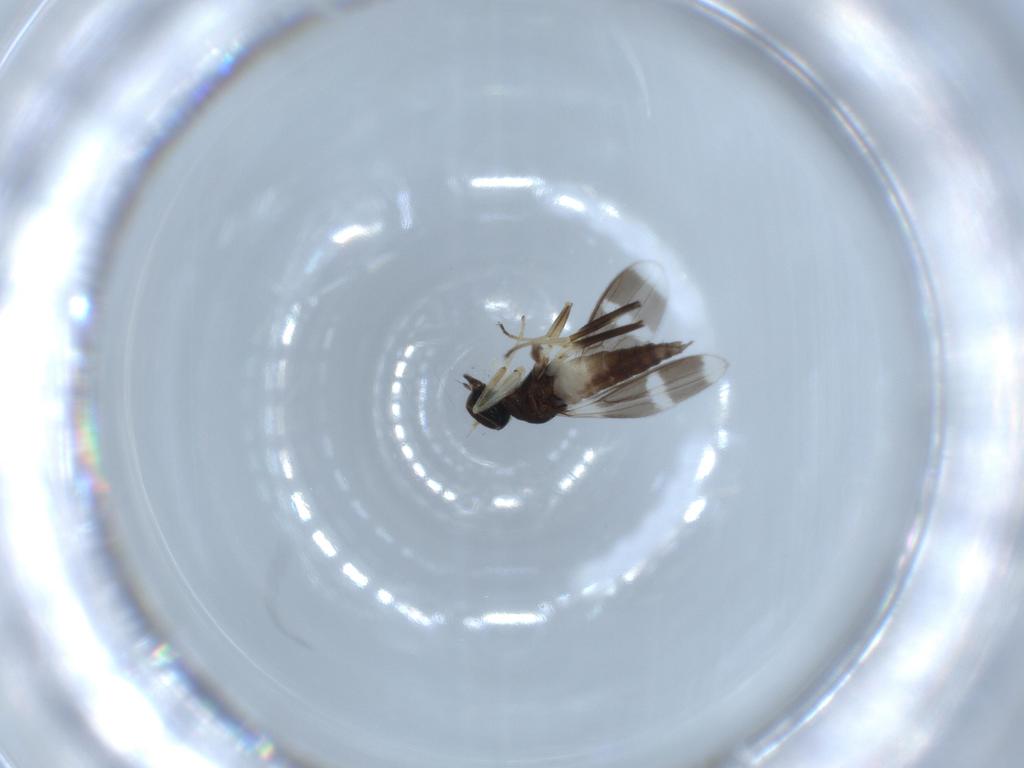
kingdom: Animalia
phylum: Arthropoda
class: Insecta
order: Diptera
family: Hybotidae
